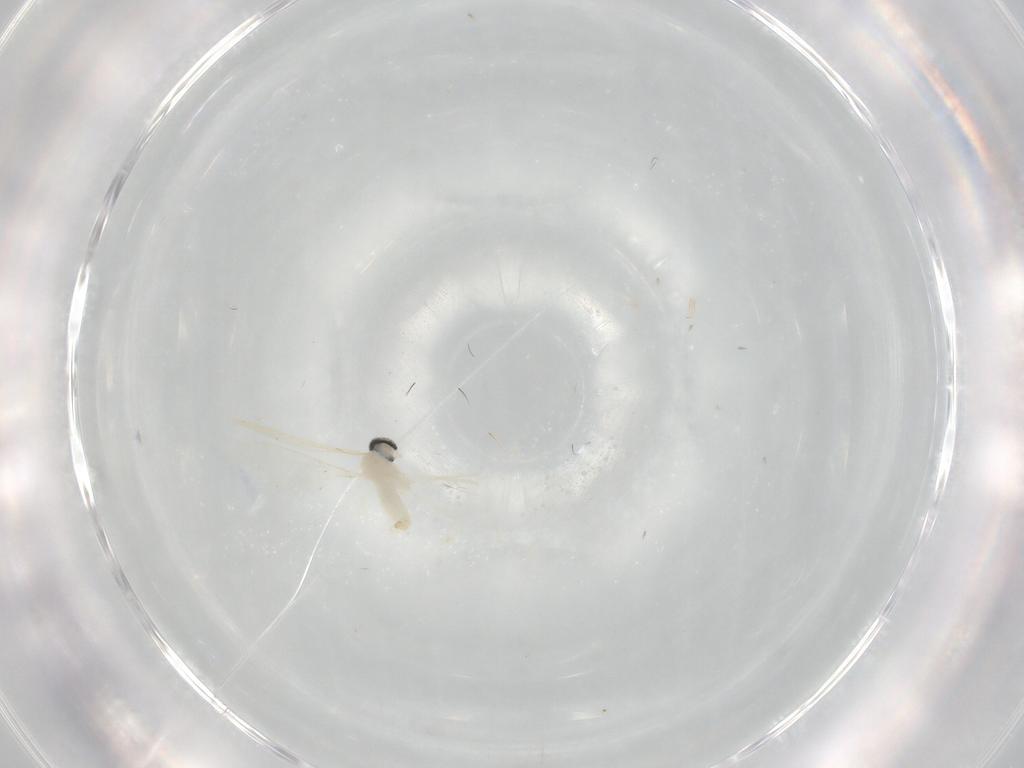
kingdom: Animalia
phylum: Arthropoda
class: Insecta
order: Diptera
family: Cecidomyiidae
